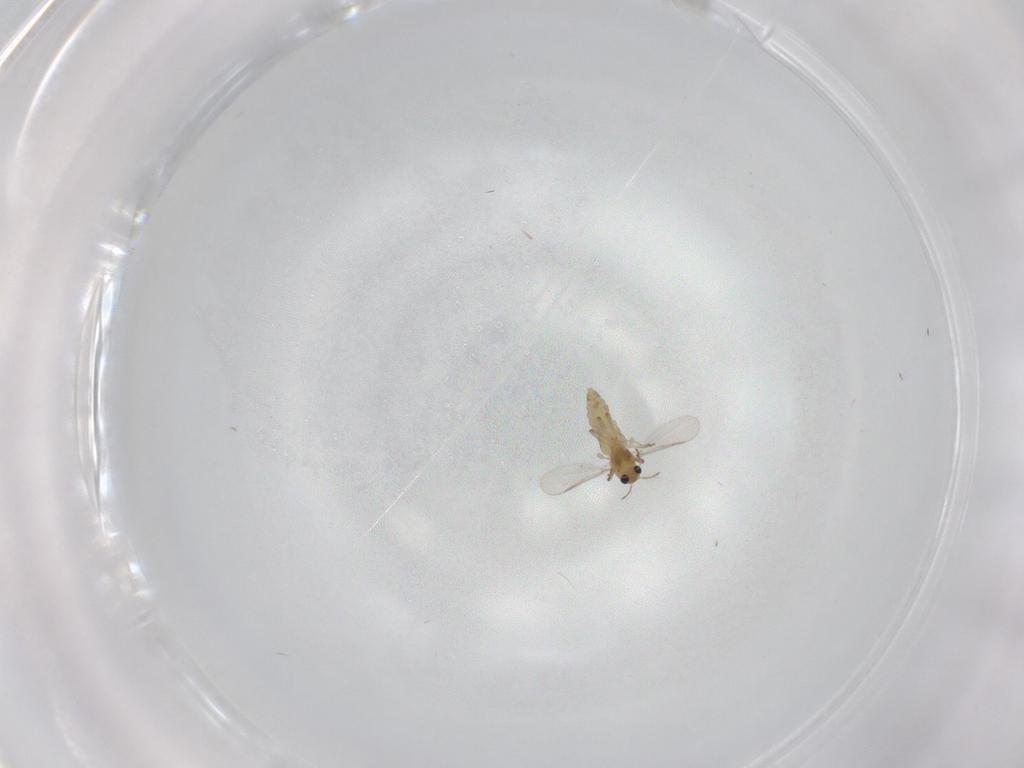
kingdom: Animalia
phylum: Arthropoda
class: Insecta
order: Diptera
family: Chironomidae
